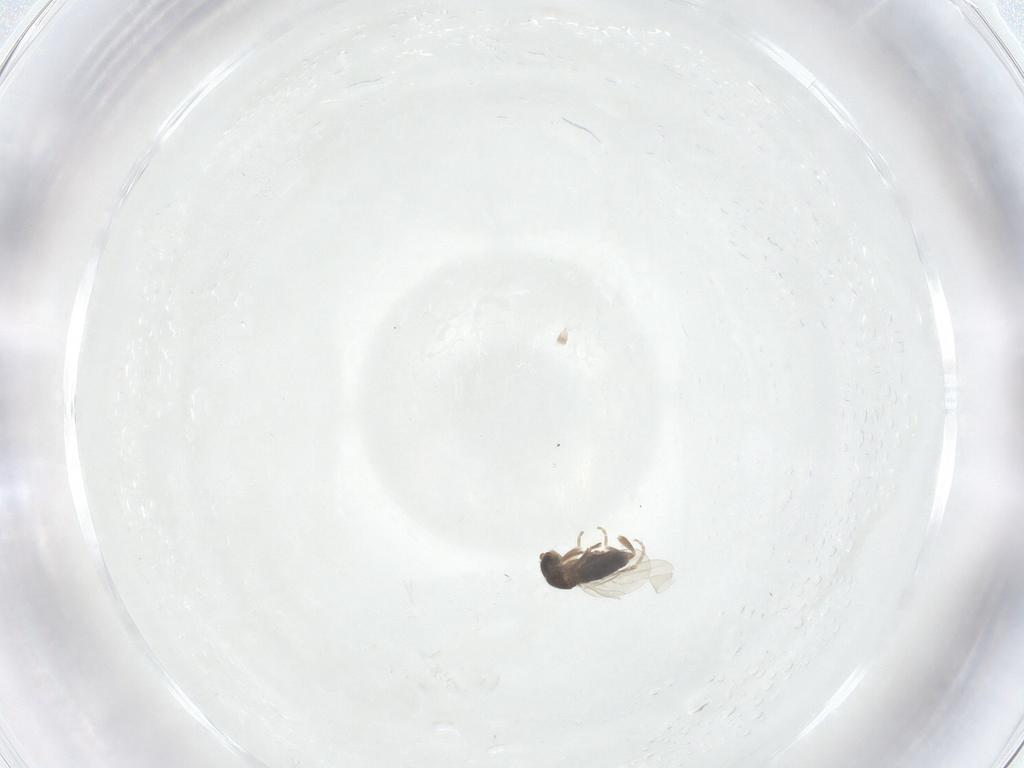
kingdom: Animalia
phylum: Arthropoda
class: Insecta
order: Diptera
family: Phoridae
